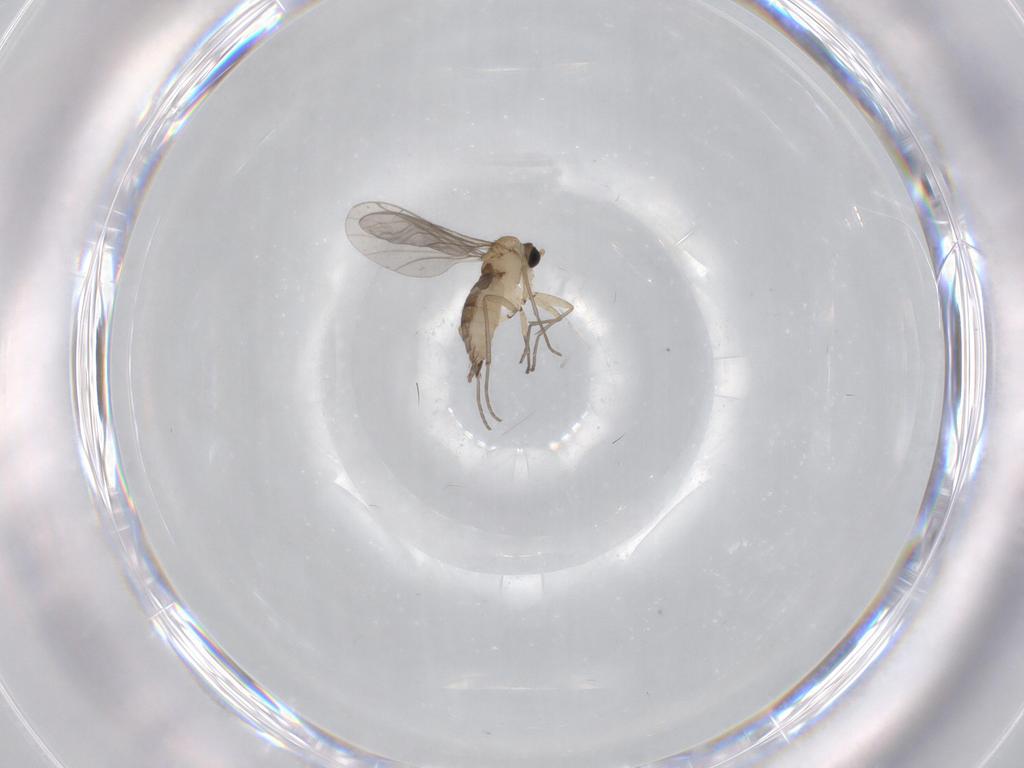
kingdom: Animalia
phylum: Arthropoda
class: Insecta
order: Diptera
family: Sciaridae
